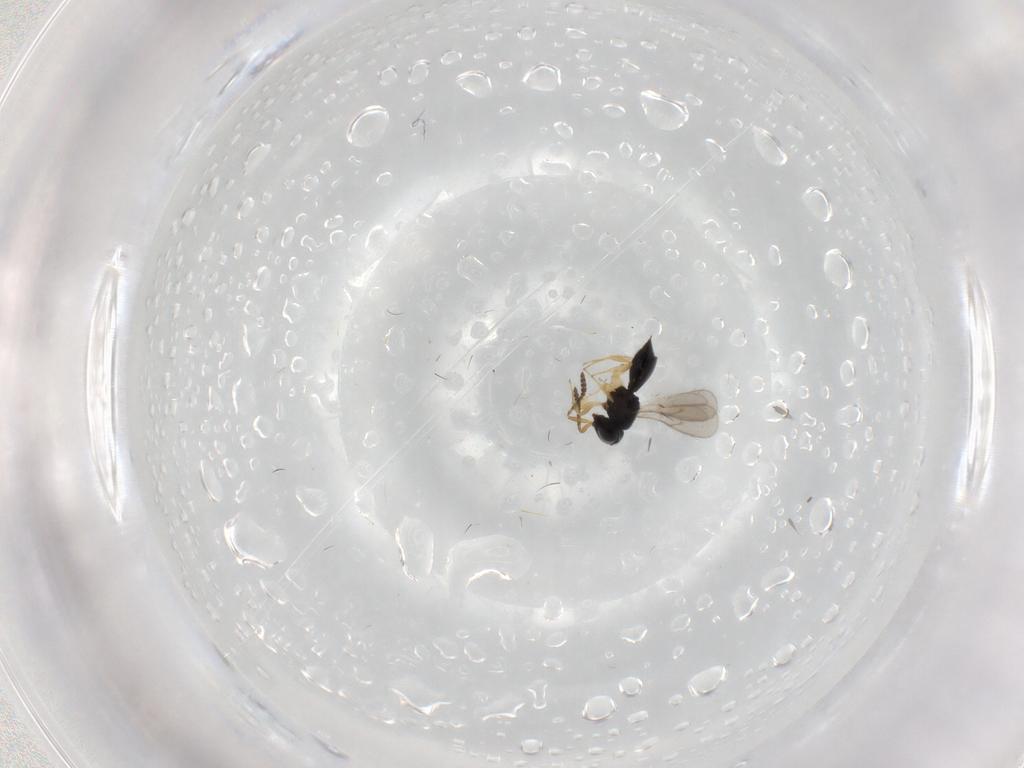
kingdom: Animalia
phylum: Arthropoda
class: Insecta
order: Hymenoptera
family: Scelionidae
